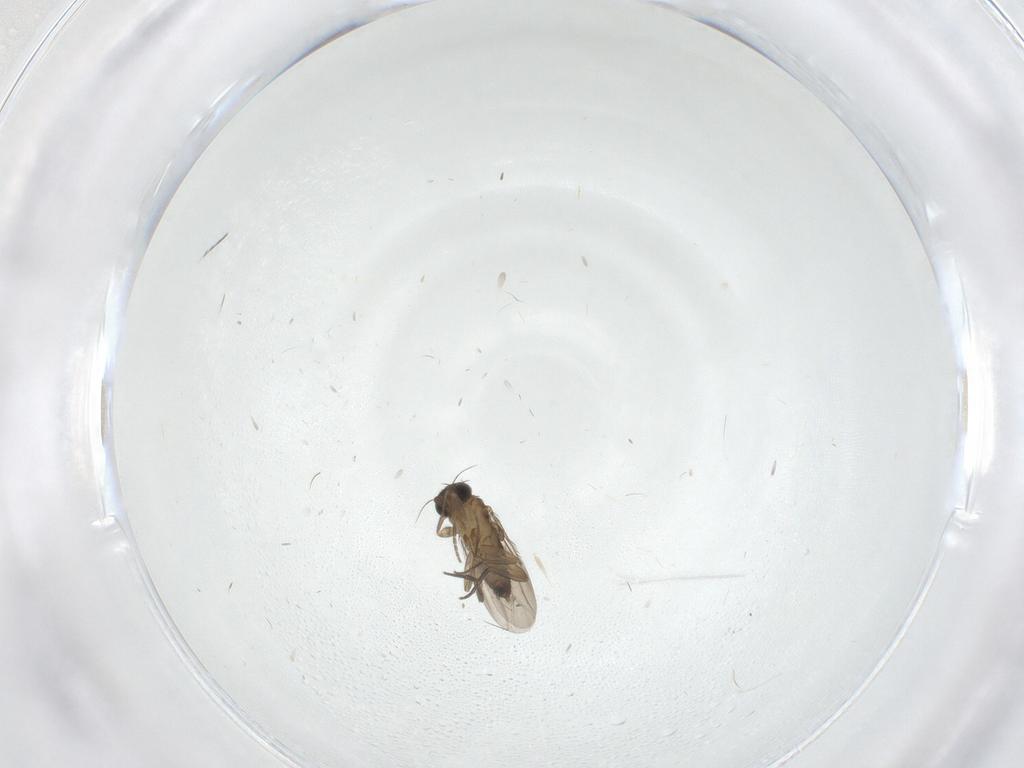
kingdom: Animalia
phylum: Arthropoda
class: Insecta
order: Diptera
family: Phoridae
